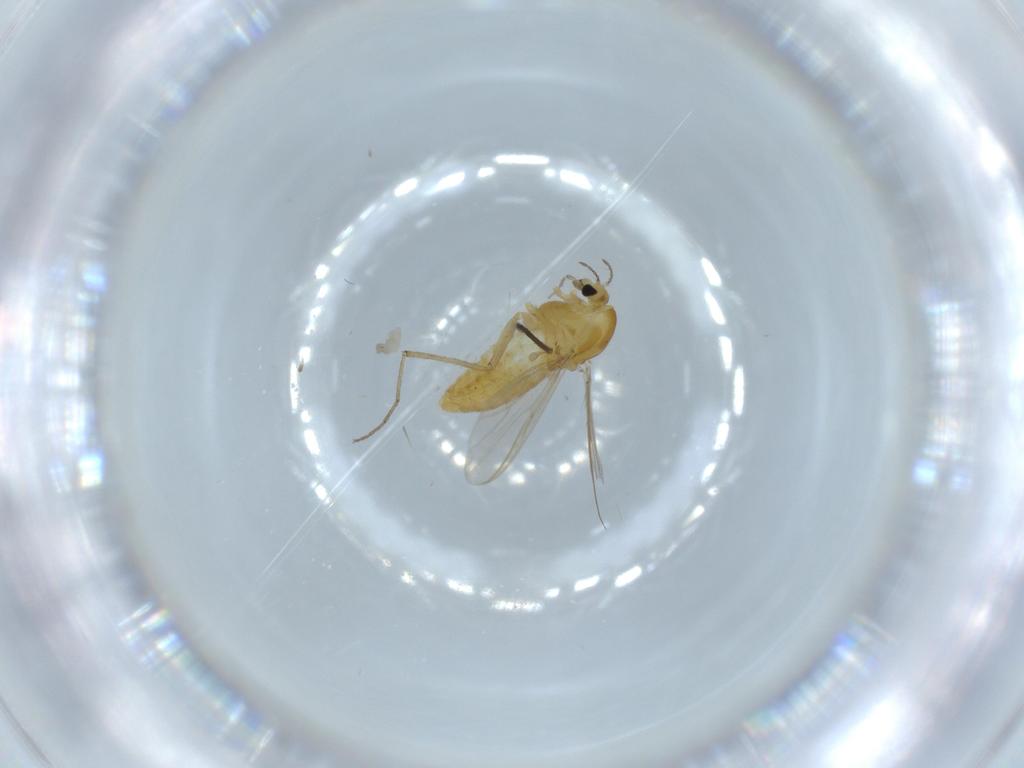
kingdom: Animalia
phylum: Arthropoda
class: Insecta
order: Diptera
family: Chironomidae
